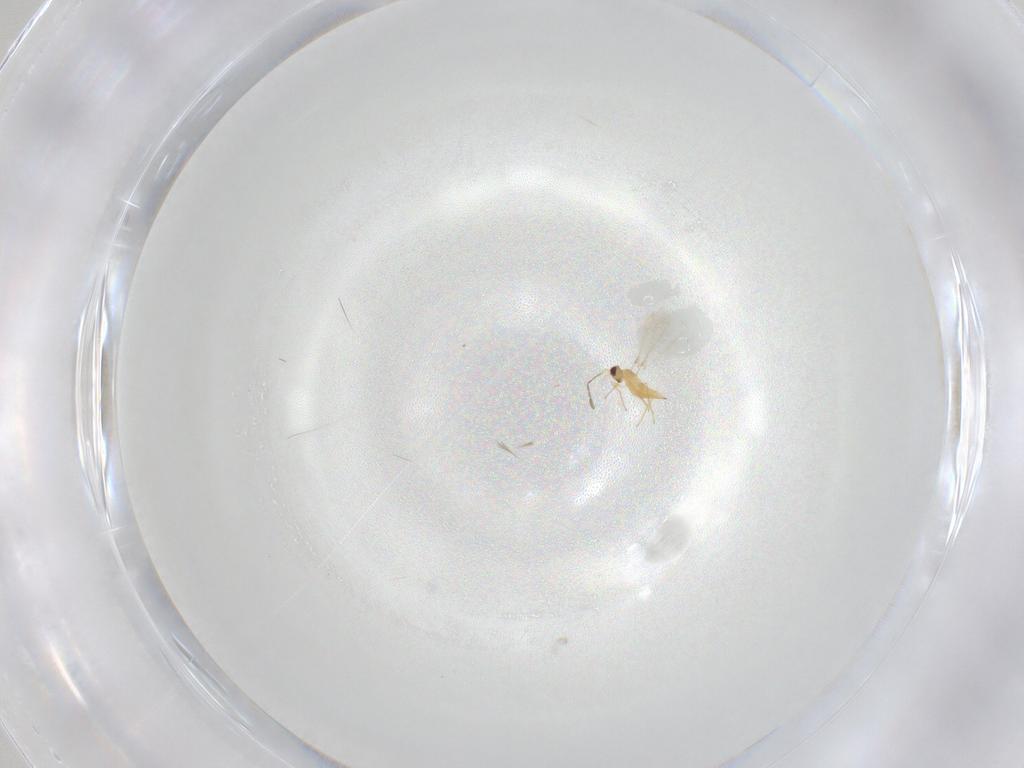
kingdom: Animalia
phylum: Arthropoda
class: Insecta
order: Hymenoptera
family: Mymaridae
